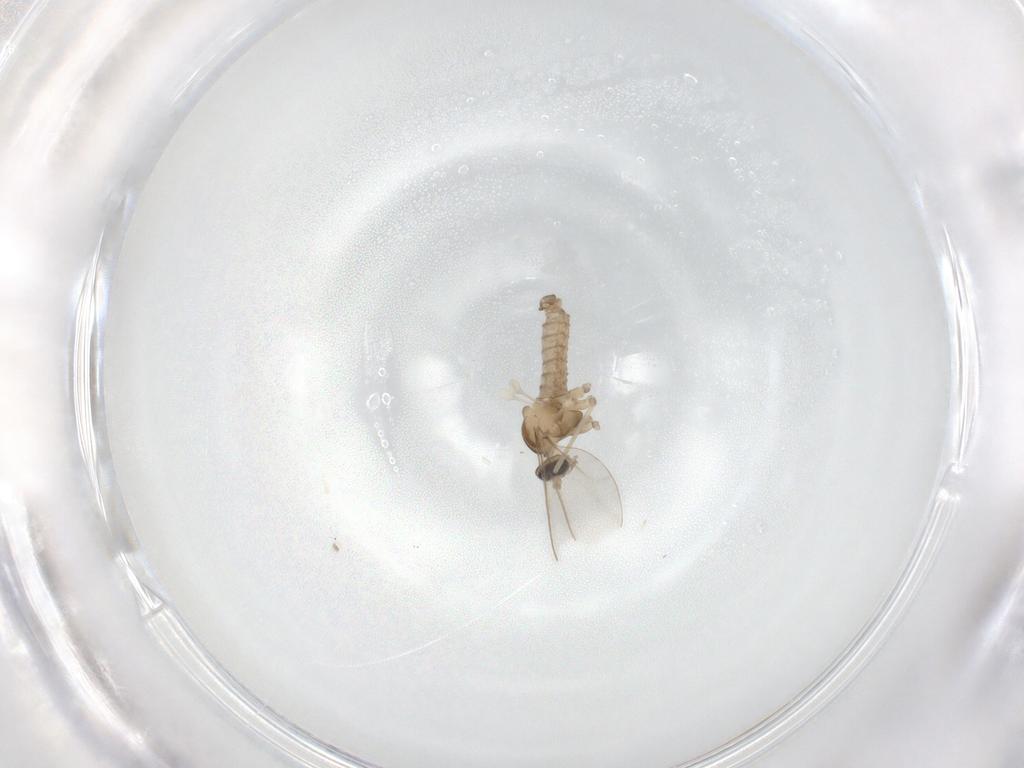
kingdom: Animalia
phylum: Arthropoda
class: Insecta
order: Diptera
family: Cecidomyiidae
